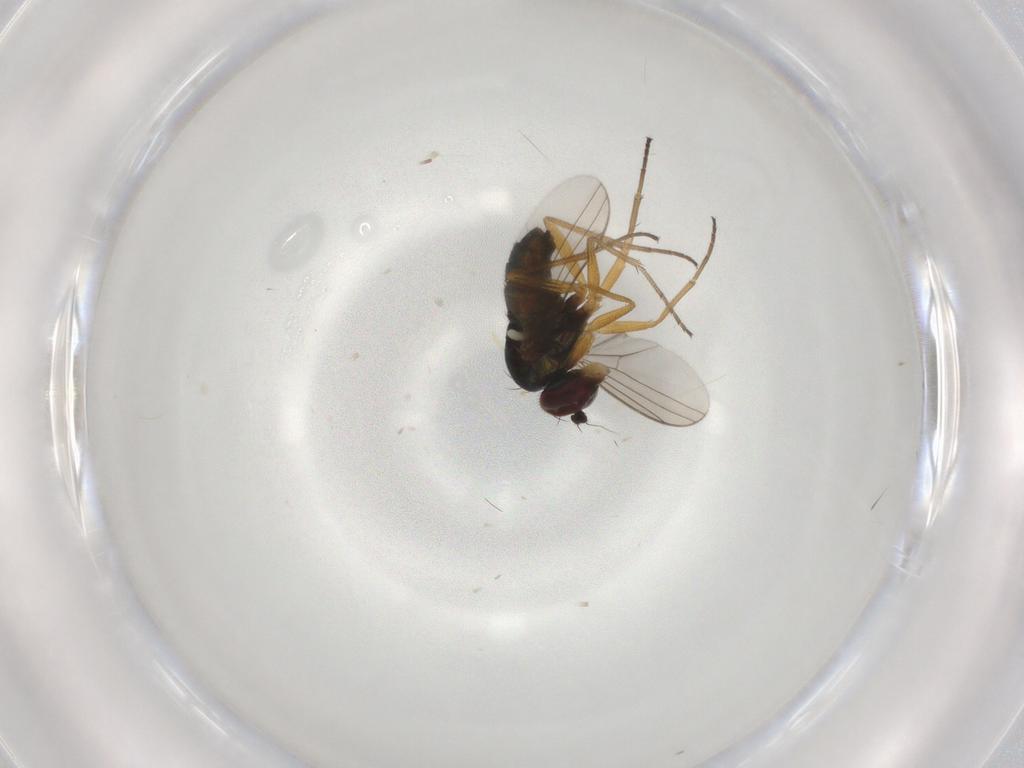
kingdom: Animalia
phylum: Arthropoda
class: Insecta
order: Diptera
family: Dolichopodidae
